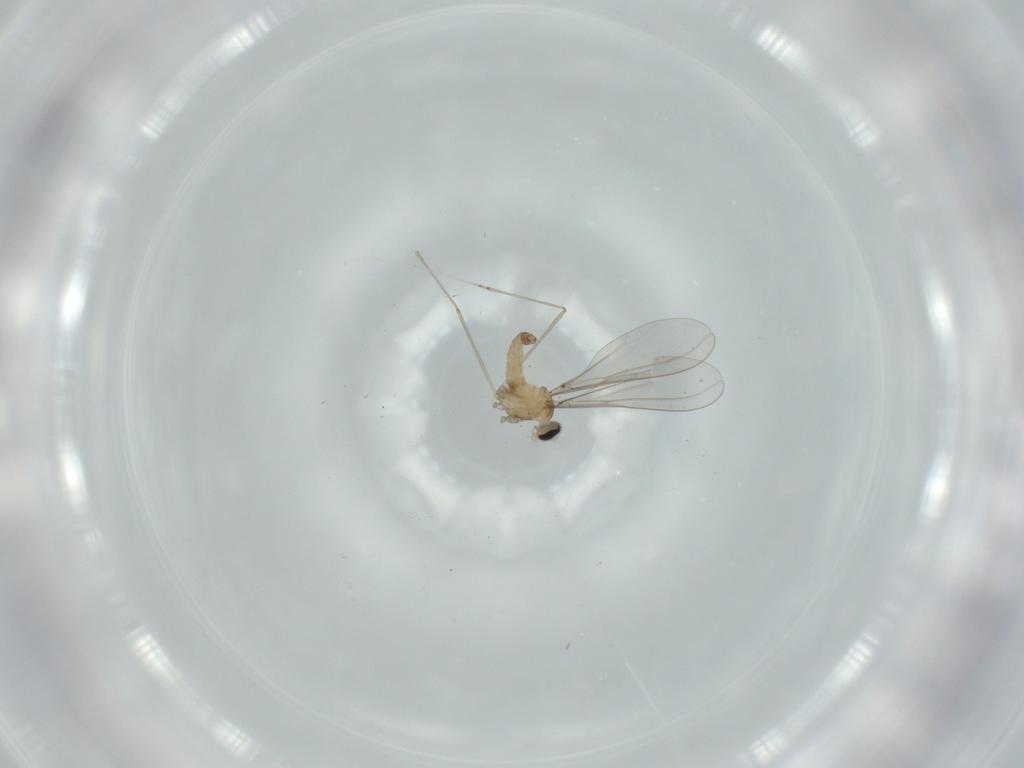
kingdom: Animalia
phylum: Arthropoda
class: Insecta
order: Diptera
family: Cecidomyiidae
